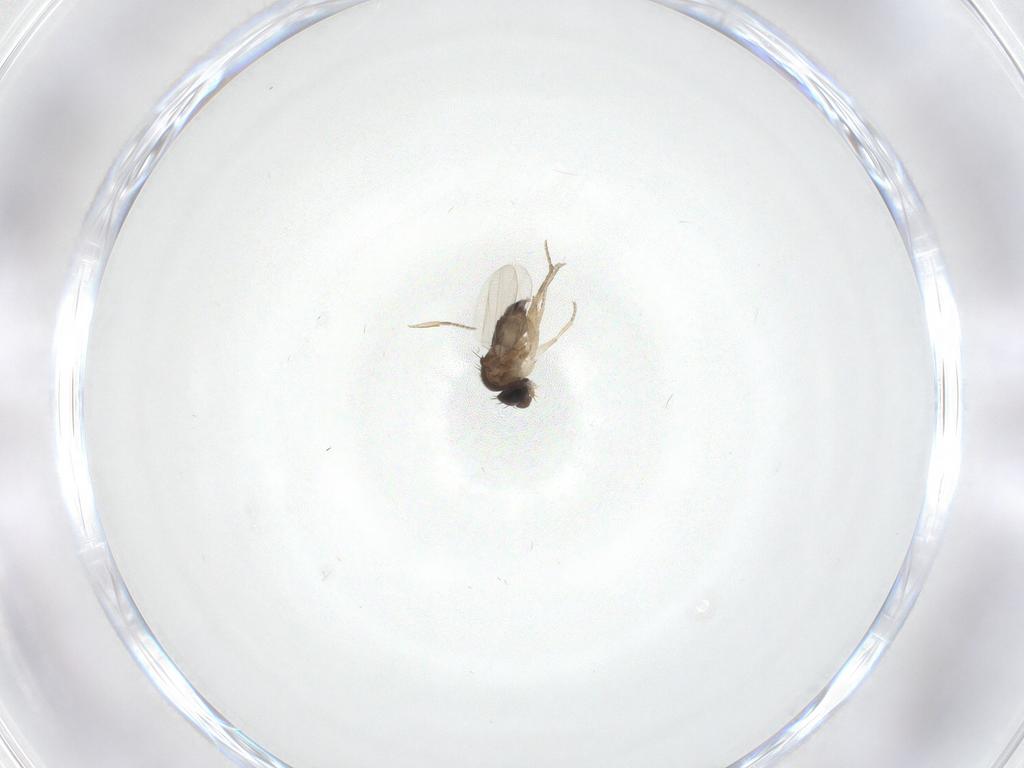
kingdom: Animalia
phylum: Arthropoda
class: Insecta
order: Diptera
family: Phoridae
